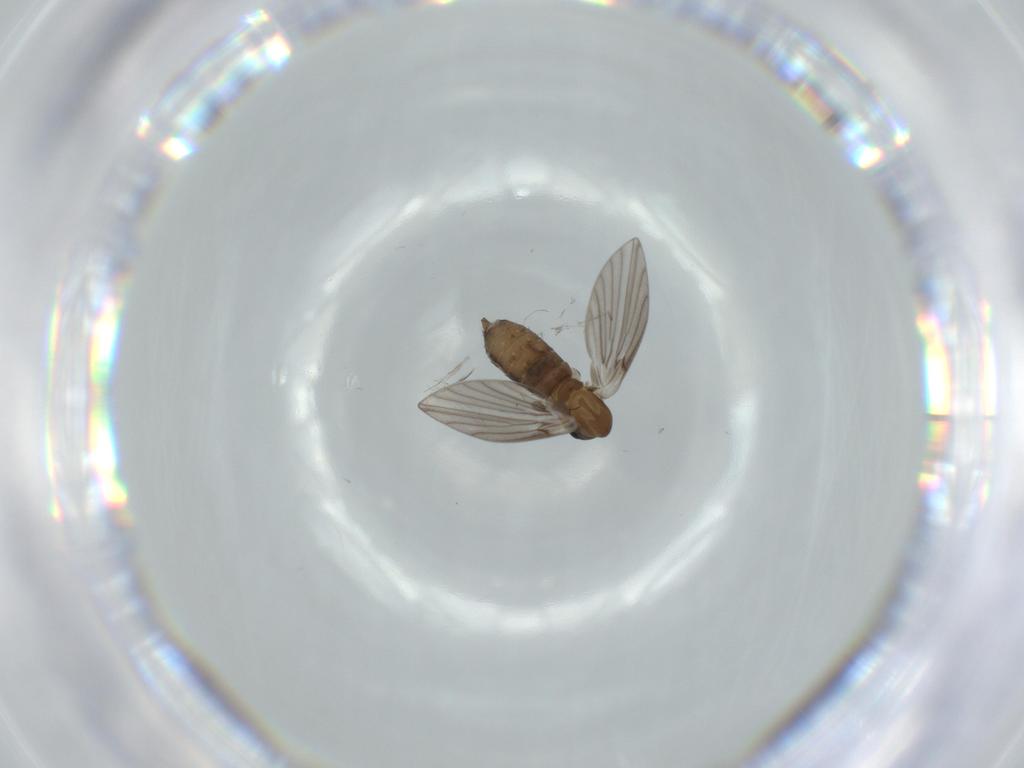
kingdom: Animalia
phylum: Arthropoda
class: Insecta
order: Diptera
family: Psychodidae
